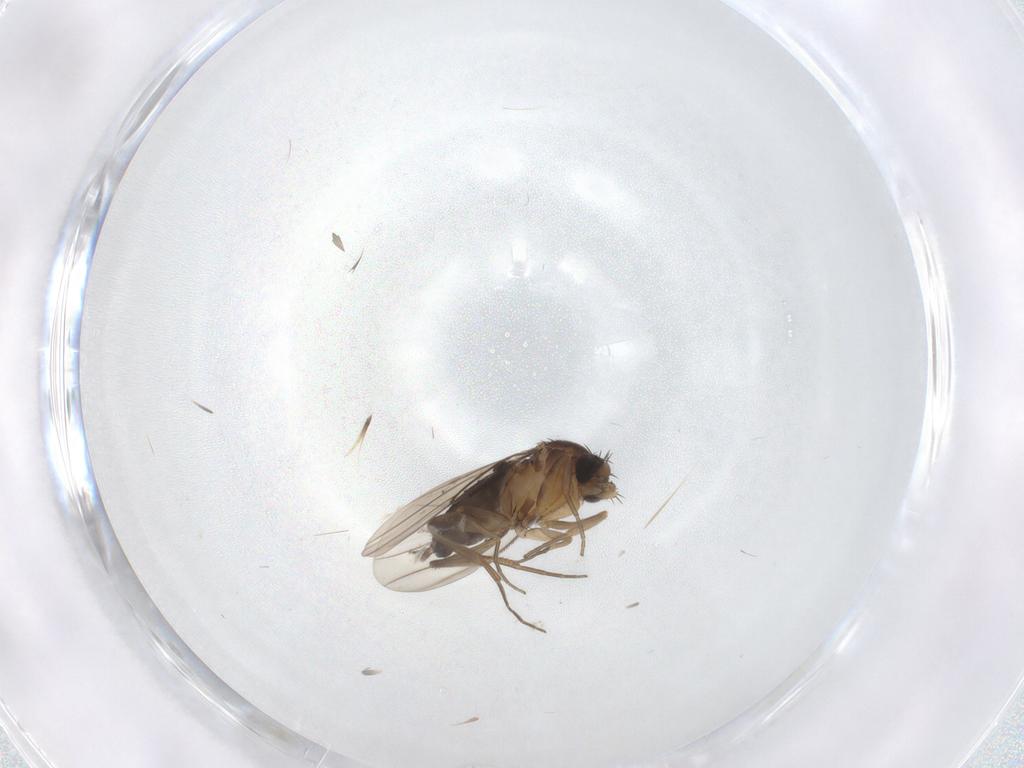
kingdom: Animalia
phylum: Arthropoda
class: Insecta
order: Diptera
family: Phoridae
